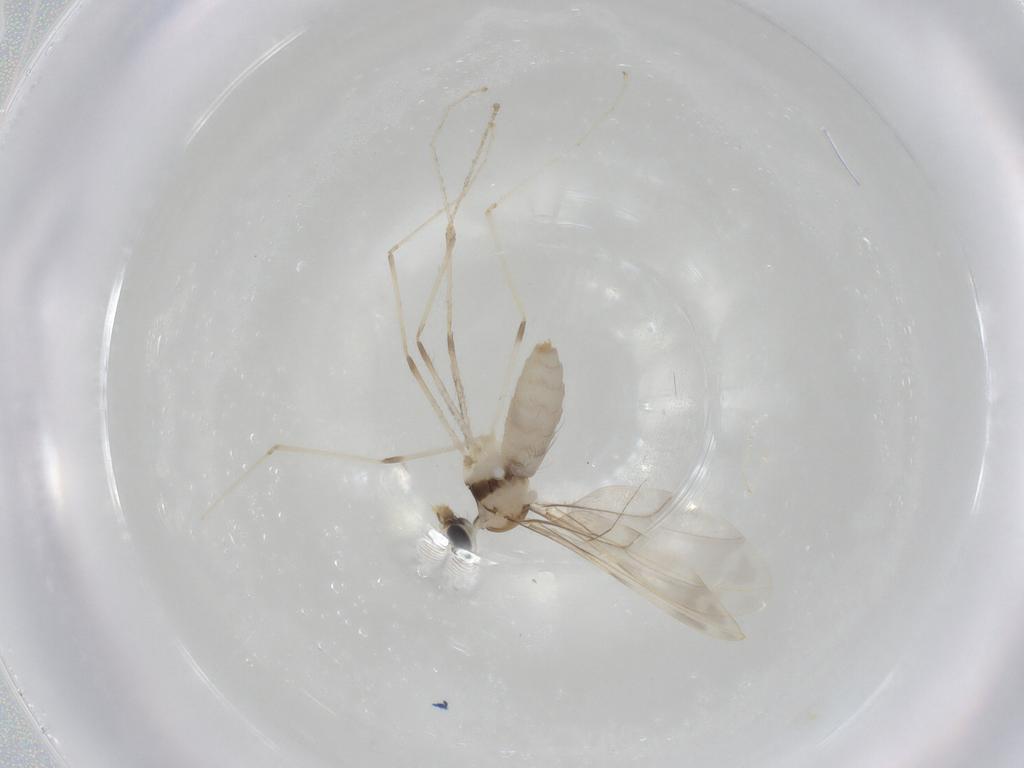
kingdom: Animalia
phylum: Arthropoda
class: Insecta
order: Diptera
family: Cecidomyiidae
